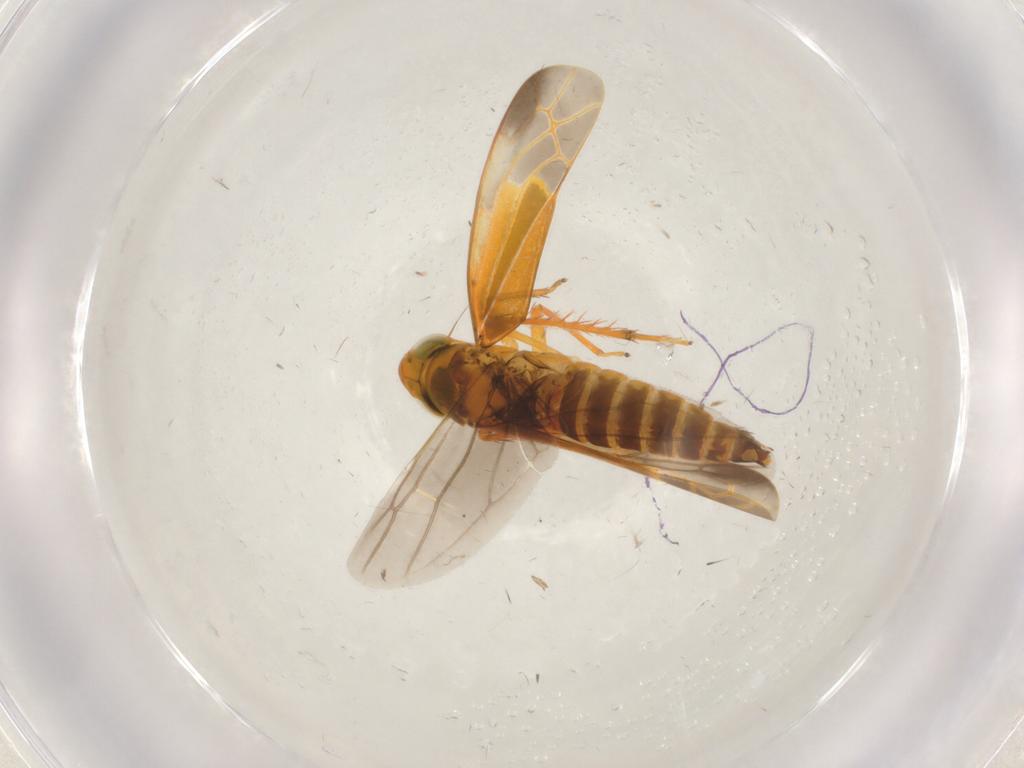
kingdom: Animalia
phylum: Arthropoda
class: Insecta
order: Hemiptera
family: Cicadellidae
